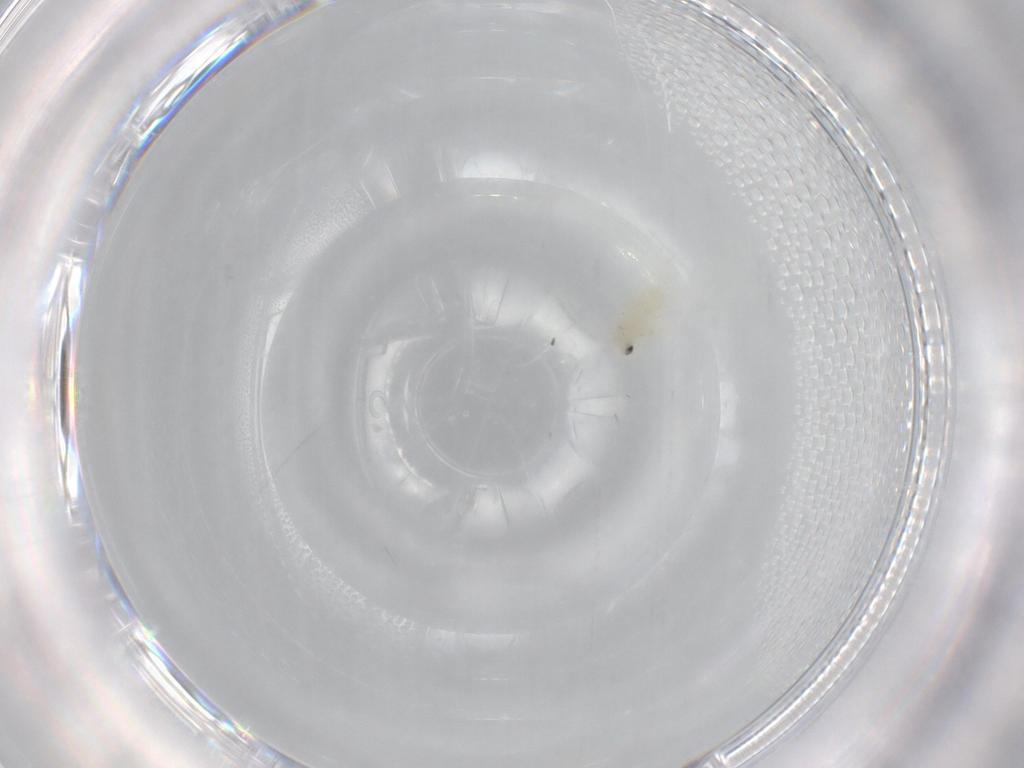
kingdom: Animalia
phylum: Arthropoda
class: Insecta
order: Hemiptera
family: Aleyrodidae
